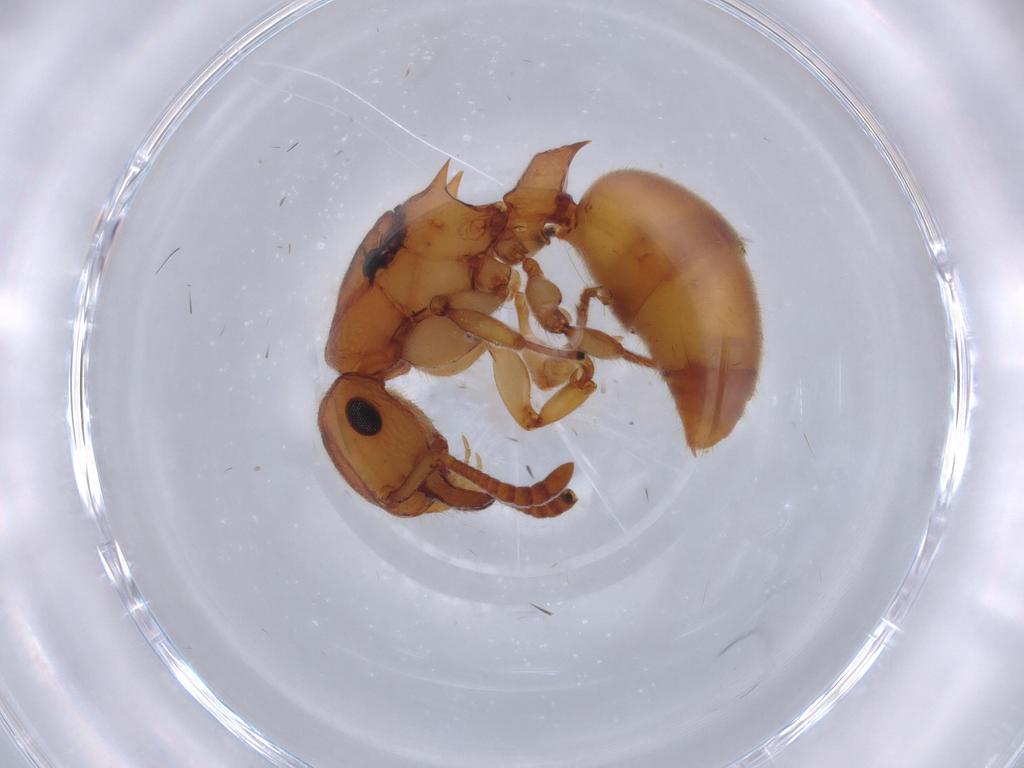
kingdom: Animalia
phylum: Arthropoda
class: Insecta
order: Hymenoptera
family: Formicidae
